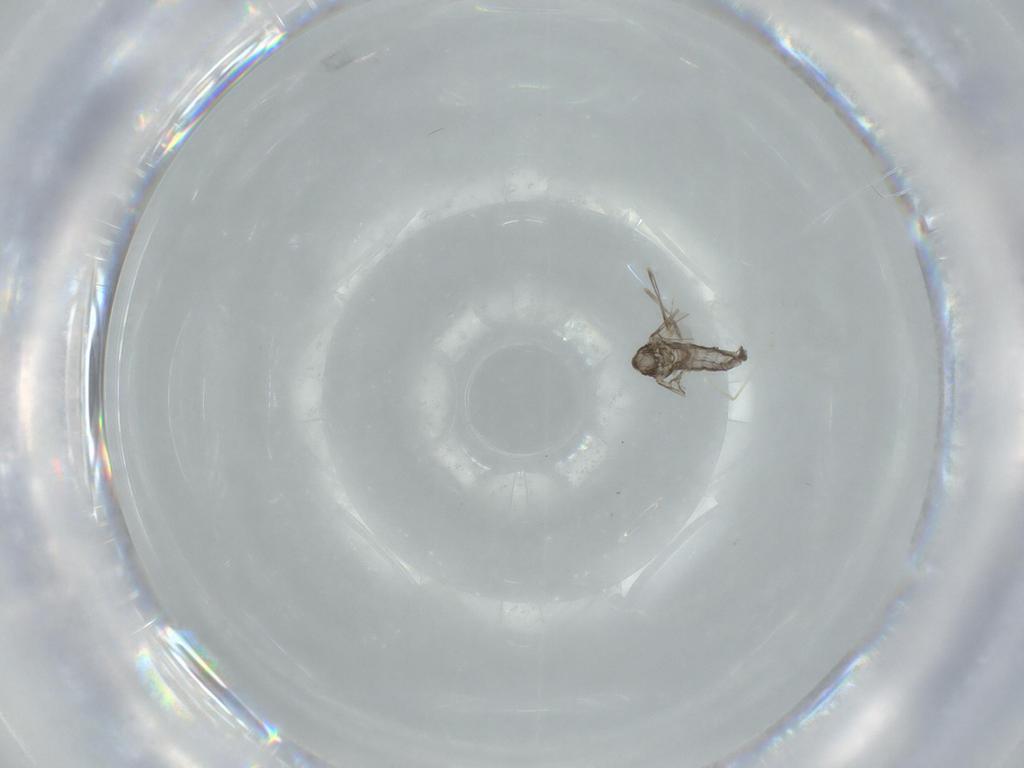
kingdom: Animalia
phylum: Arthropoda
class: Insecta
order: Diptera
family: Cecidomyiidae
